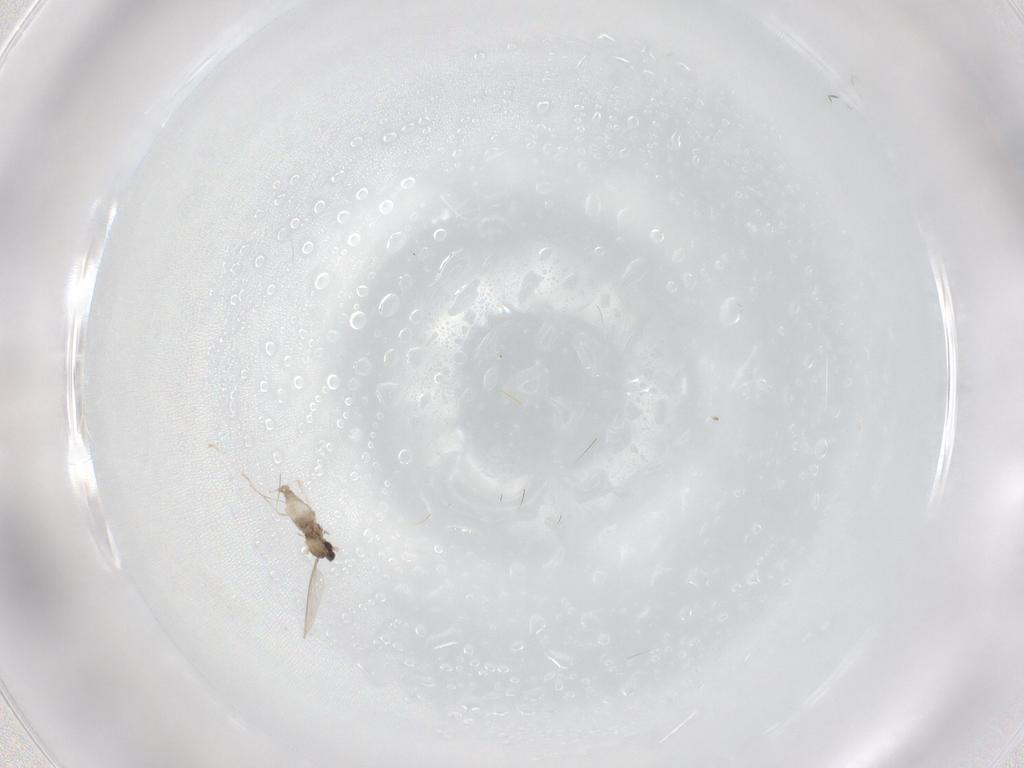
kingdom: Animalia
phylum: Arthropoda
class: Insecta
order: Diptera
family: Cecidomyiidae
